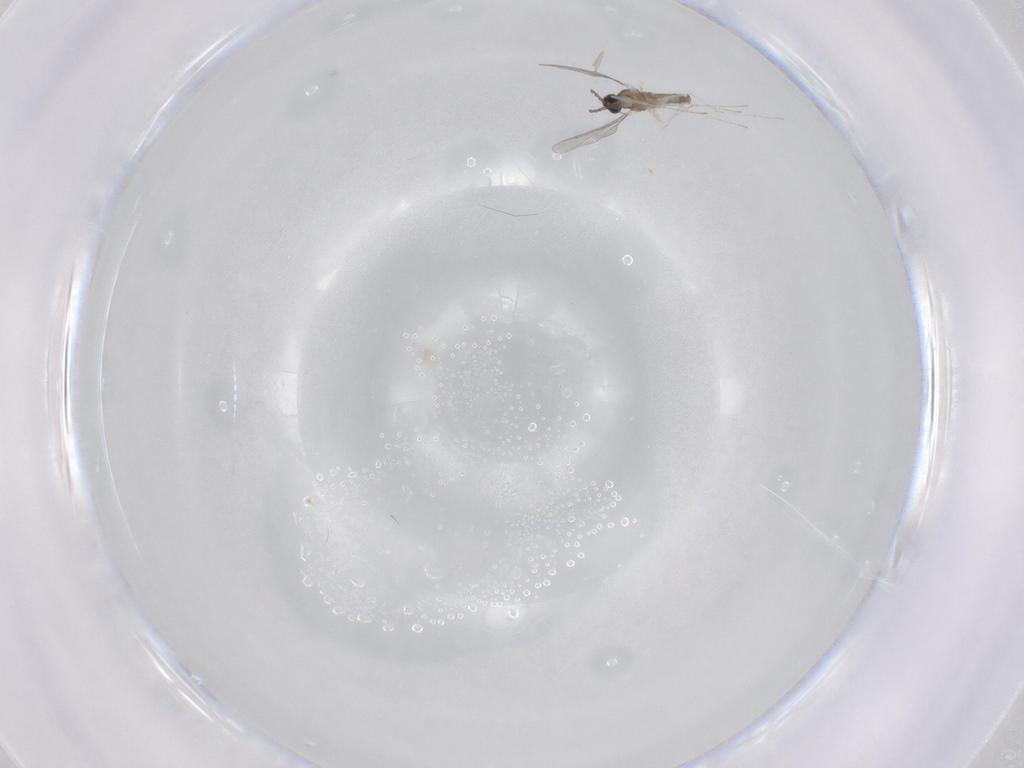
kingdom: Animalia
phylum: Arthropoda
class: Insecta
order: Diptera
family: Cecidomyiidae
